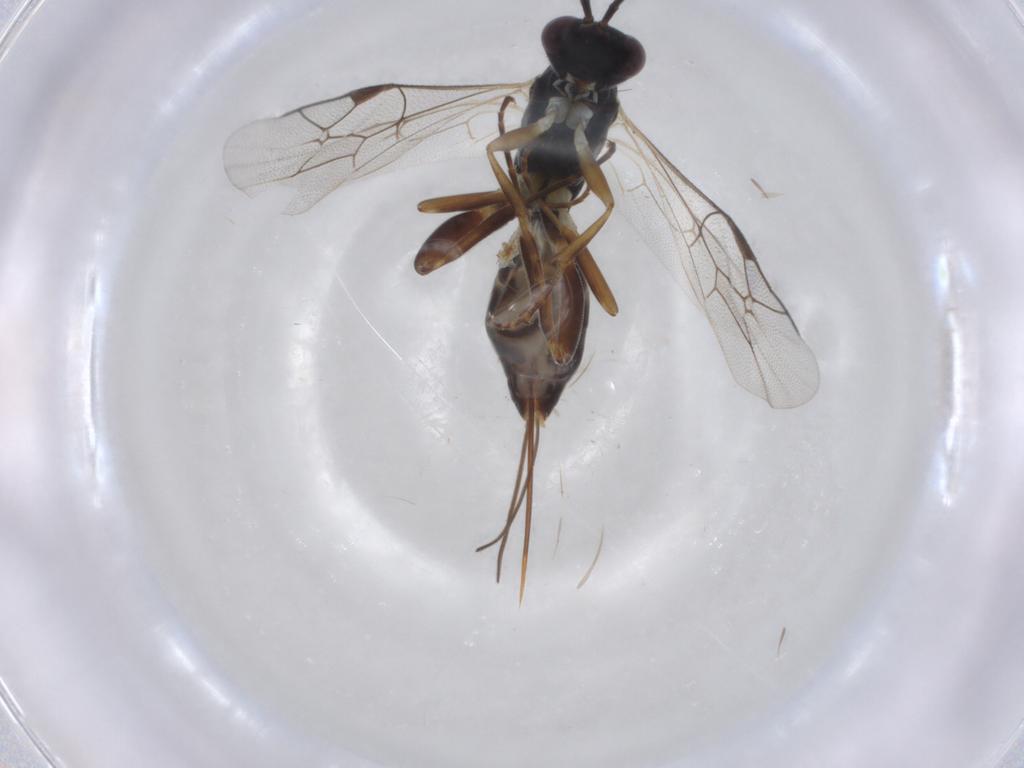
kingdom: Animalia
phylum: Arthropoda
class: Insecta
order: Hymenoptera
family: Ichneumonidae
